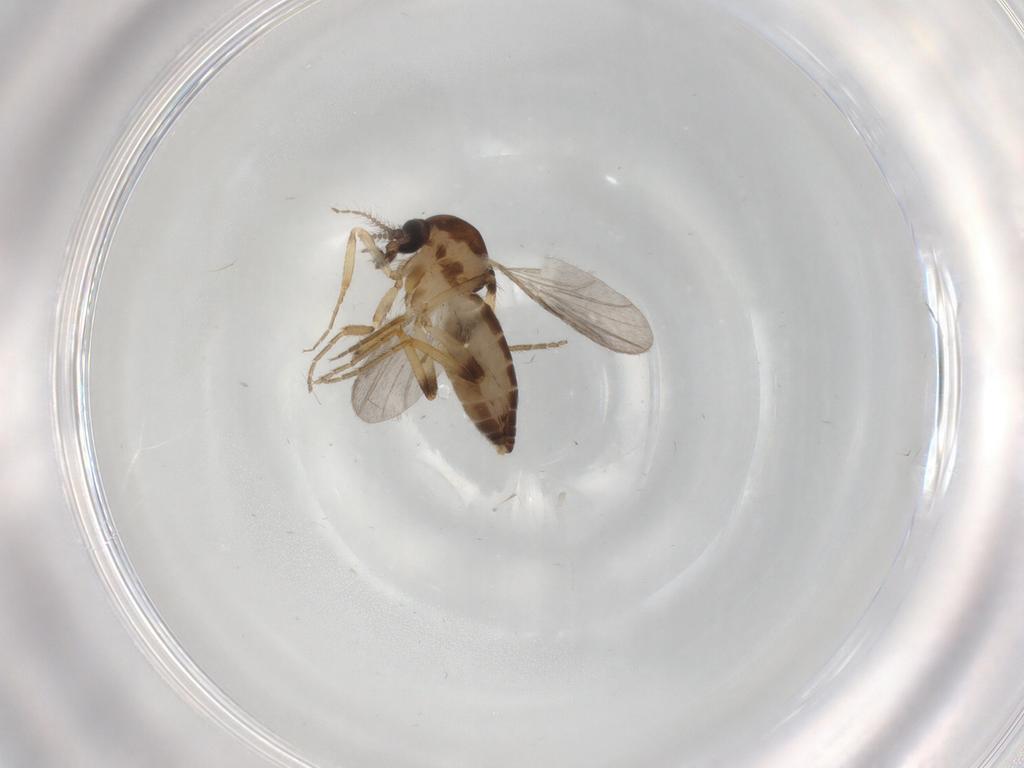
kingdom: Animalia
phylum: Arthropoda
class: Insecta
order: Diptera
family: Ceratopogonidae
